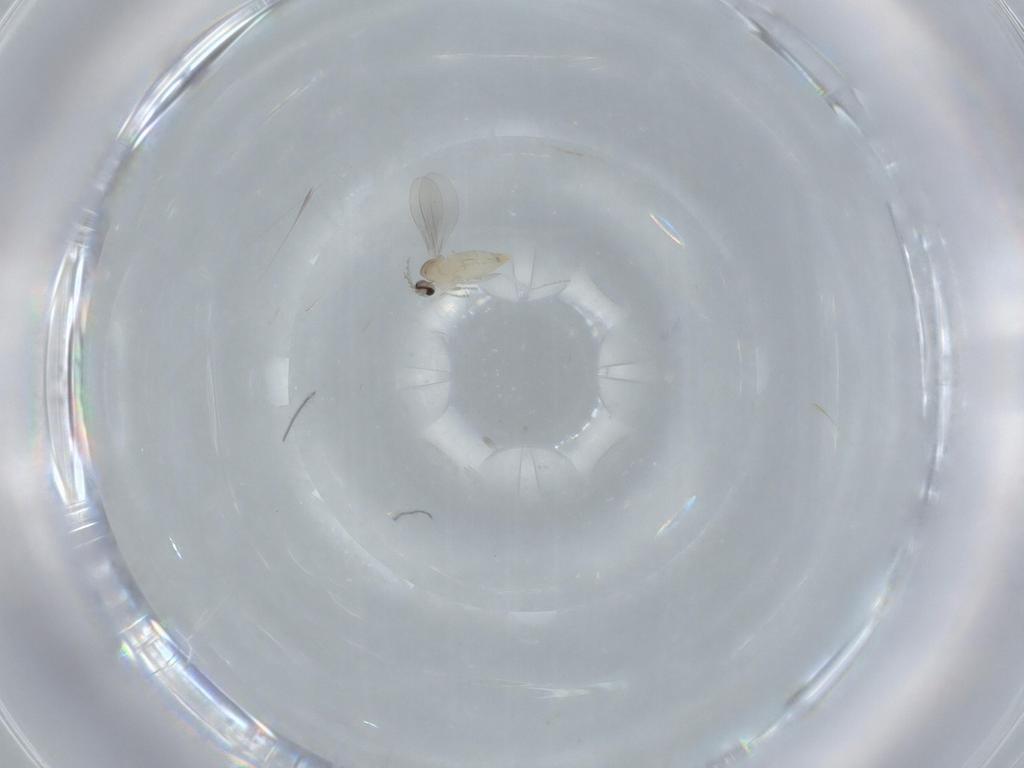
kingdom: Animalia
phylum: Arthropoda
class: Insecta
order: Diptera
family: Cecidomyiidae
